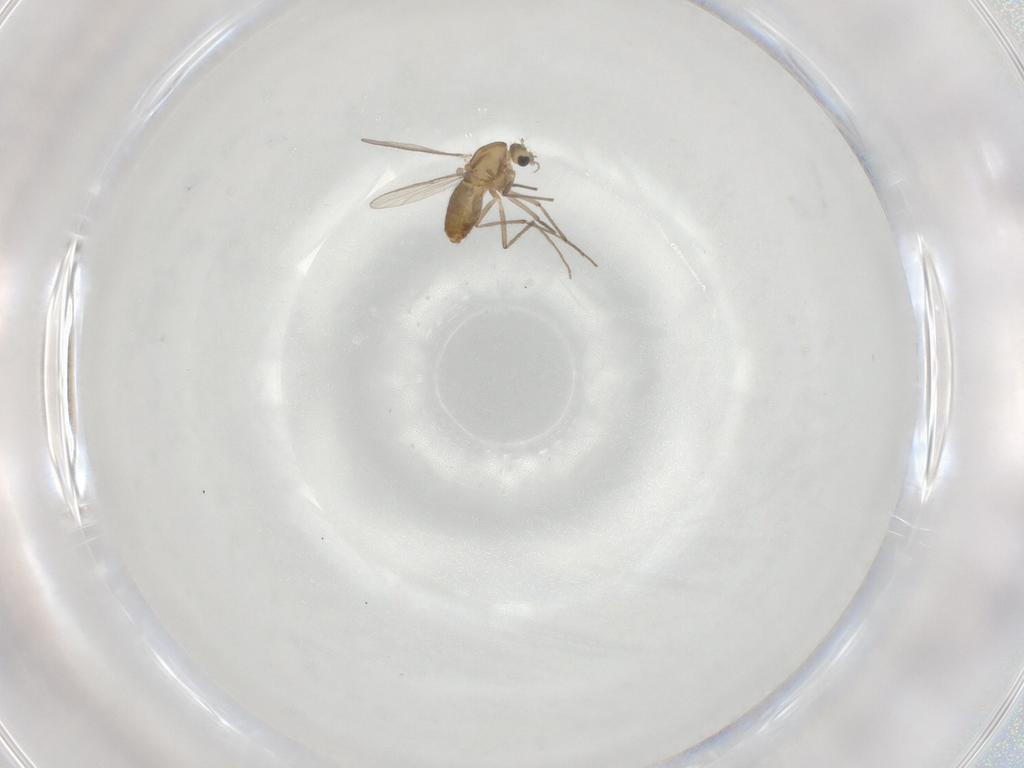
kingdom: Animalia
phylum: Arthropoda
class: Insecta
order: Diptera
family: Chironomidae
